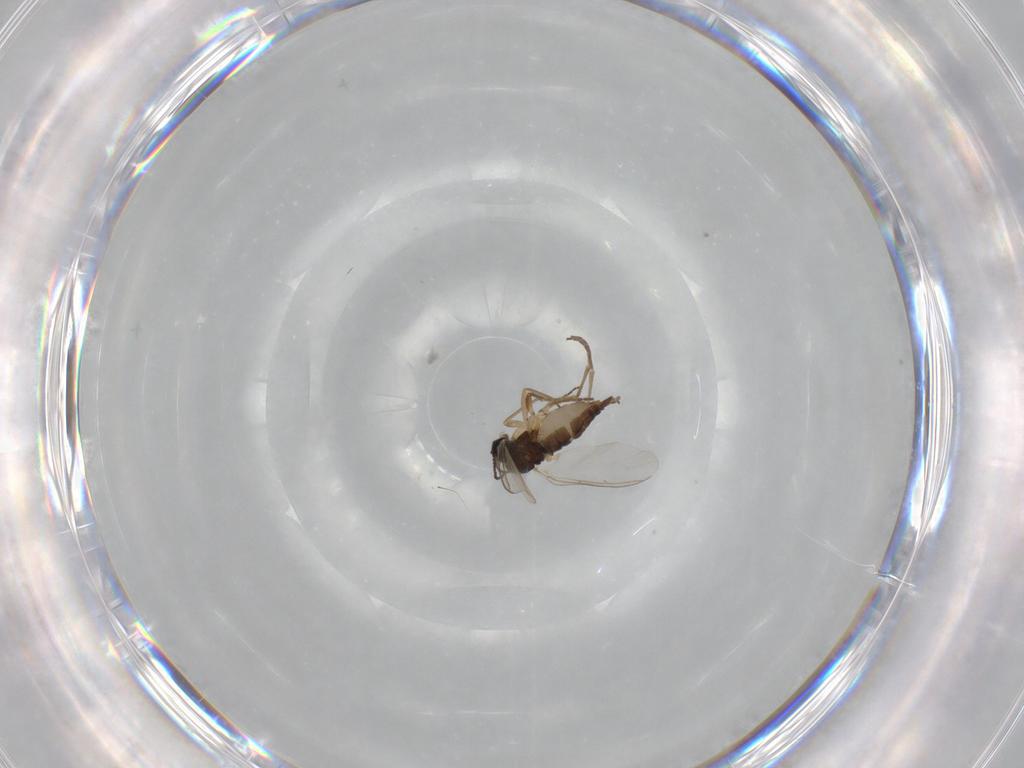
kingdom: Animalia
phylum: Arthropoda
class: Insecta
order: Diptera
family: Sciaridae
